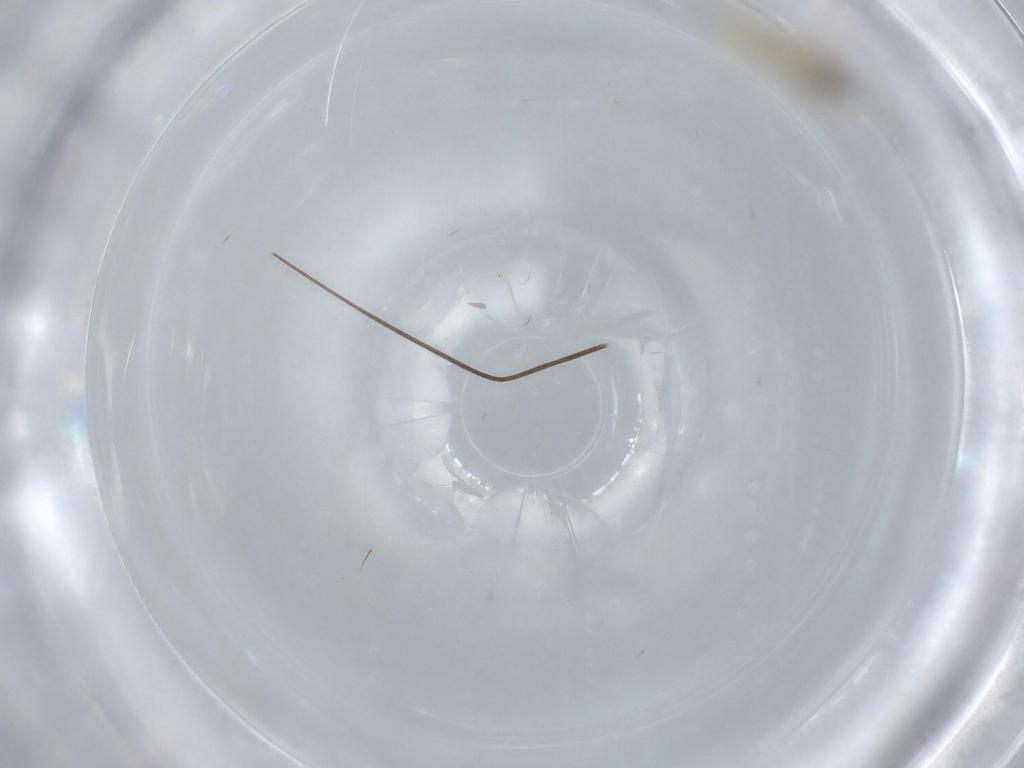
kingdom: Animalia
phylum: Arthropoda
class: Insecta
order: Diptera
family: Cecidomyiidae
